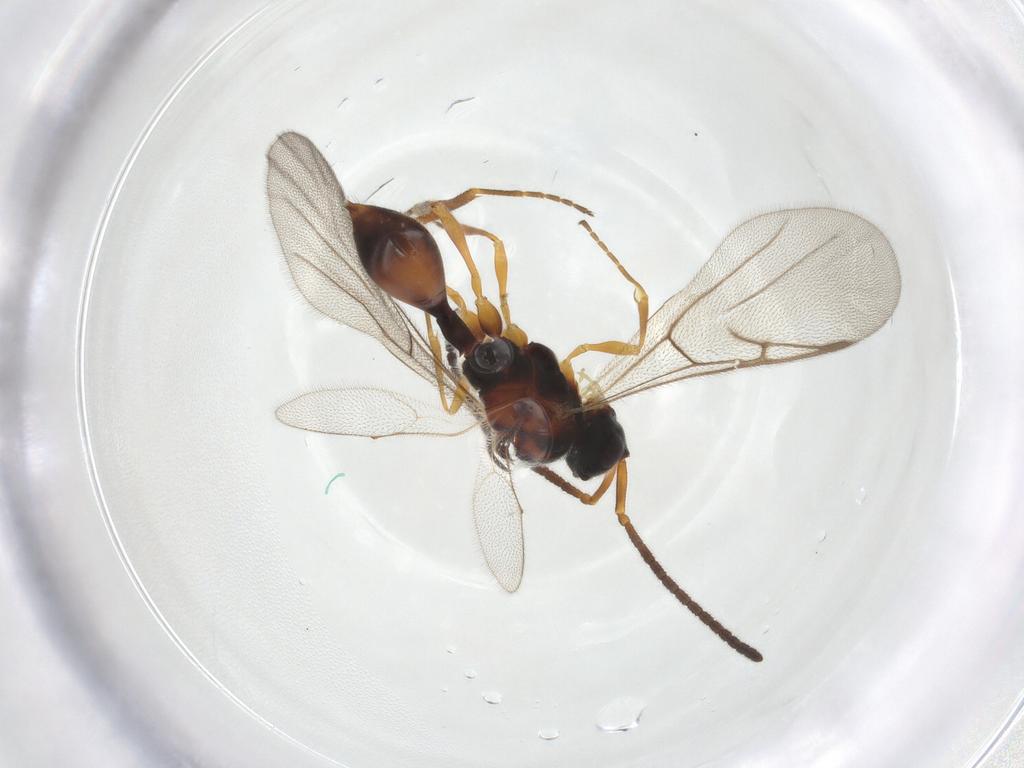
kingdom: Animalia
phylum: Arthropoda
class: Insecta
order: Hymenoptera
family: Diapriidae
